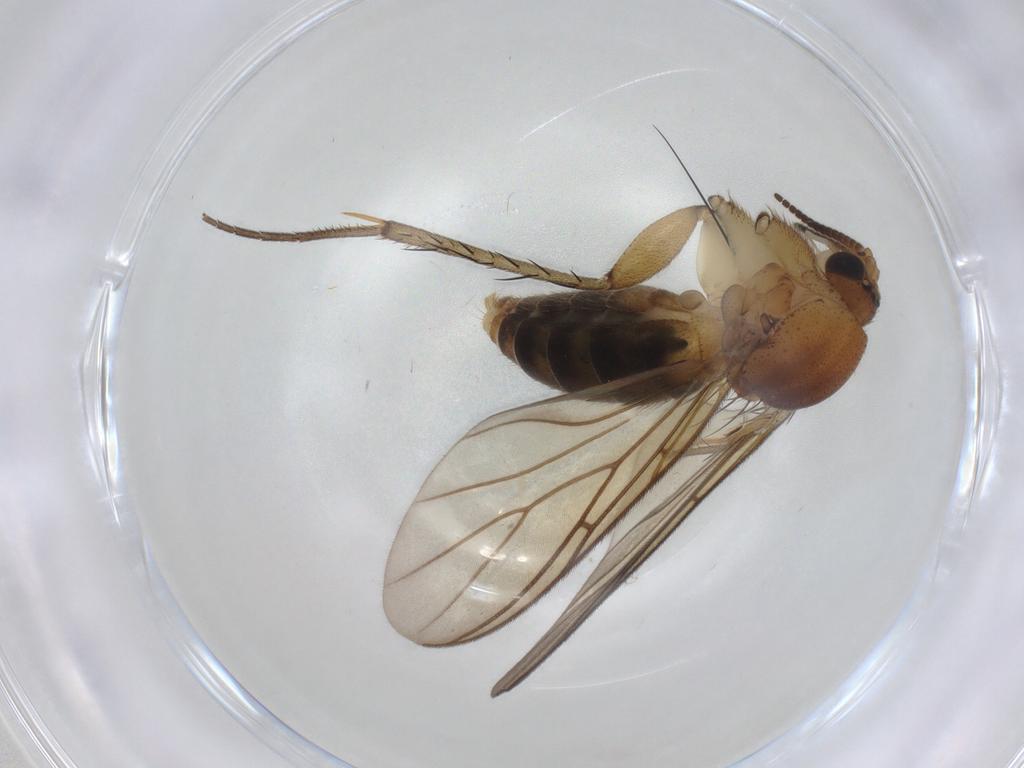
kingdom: Animalia
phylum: Arthropoda
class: Insecta
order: Diptera
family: Mycetophilidae
